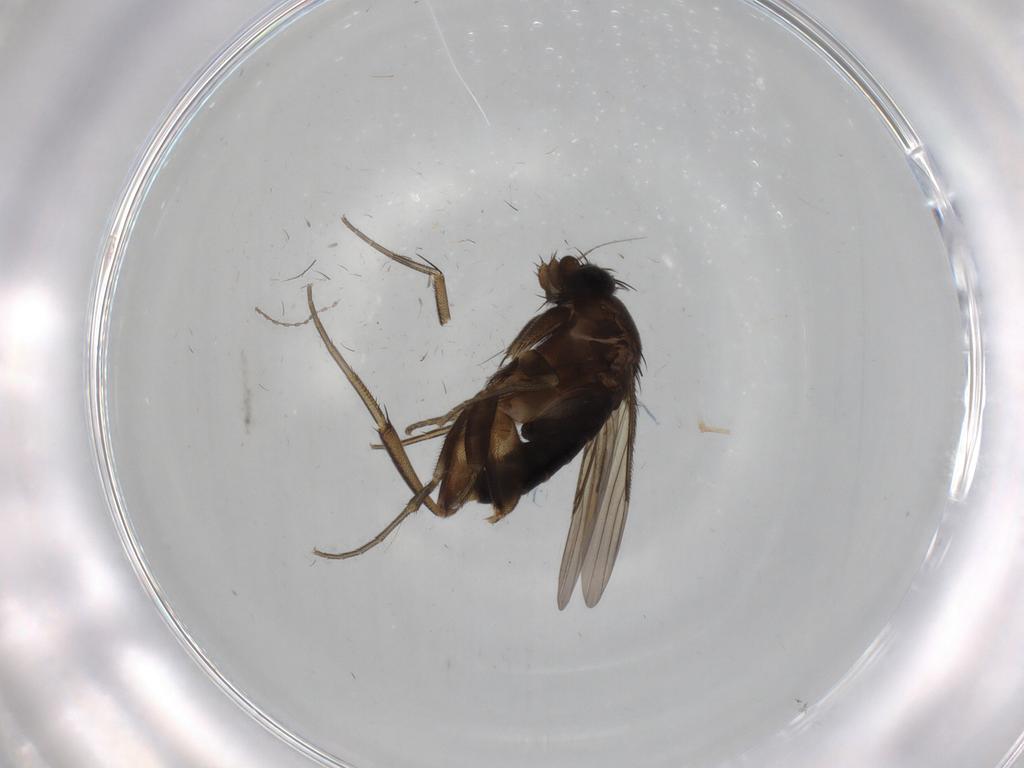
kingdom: Animalia
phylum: Arthropoda
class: Insecta
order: Diptera
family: Phoridae
